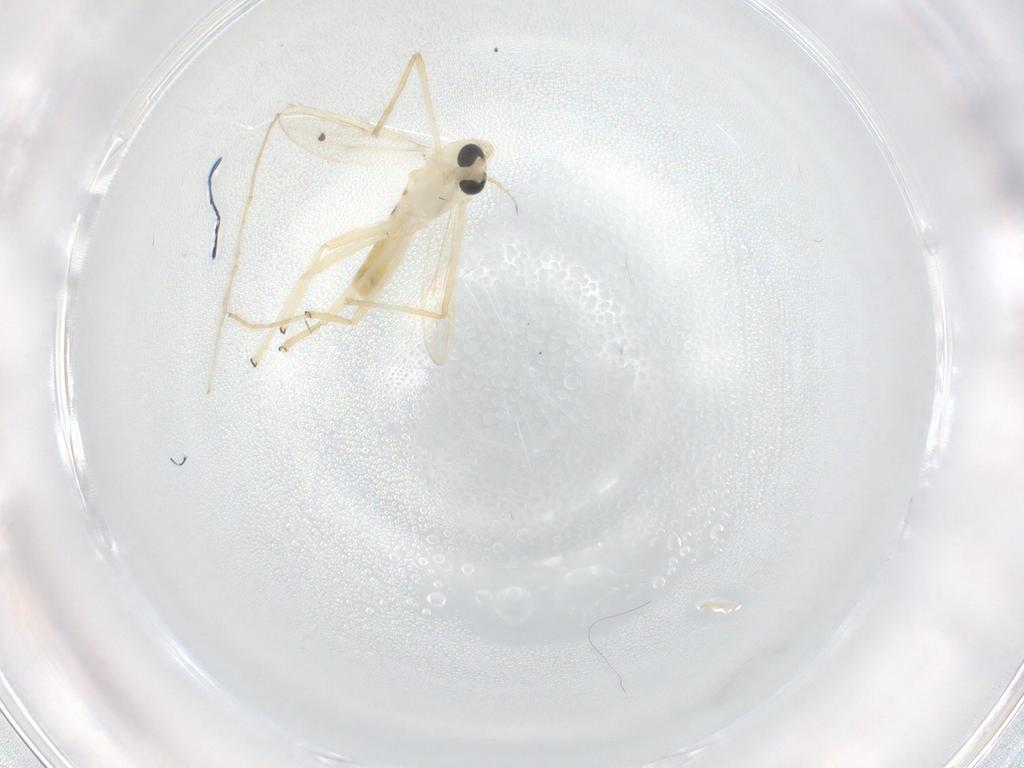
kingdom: Animalia
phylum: Arthropoda
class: Insecta
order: Diptera
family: Chironomidae
